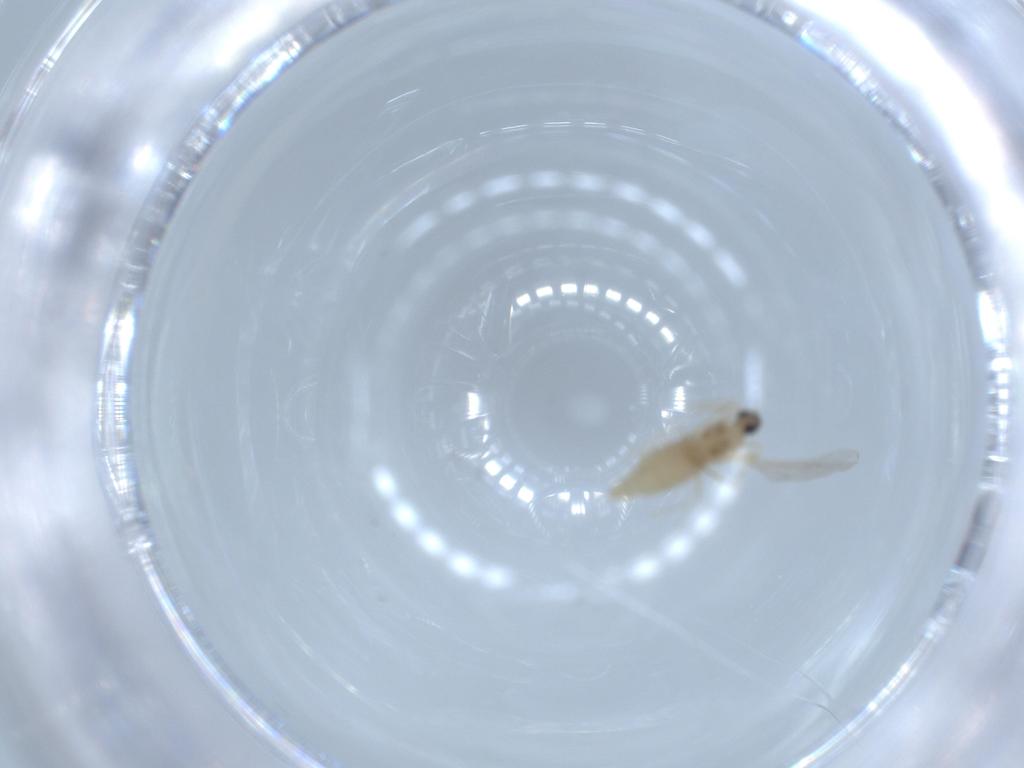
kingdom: Animalia
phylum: Arthropoda
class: Insecta
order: Diptera
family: Cecidomyiidae
